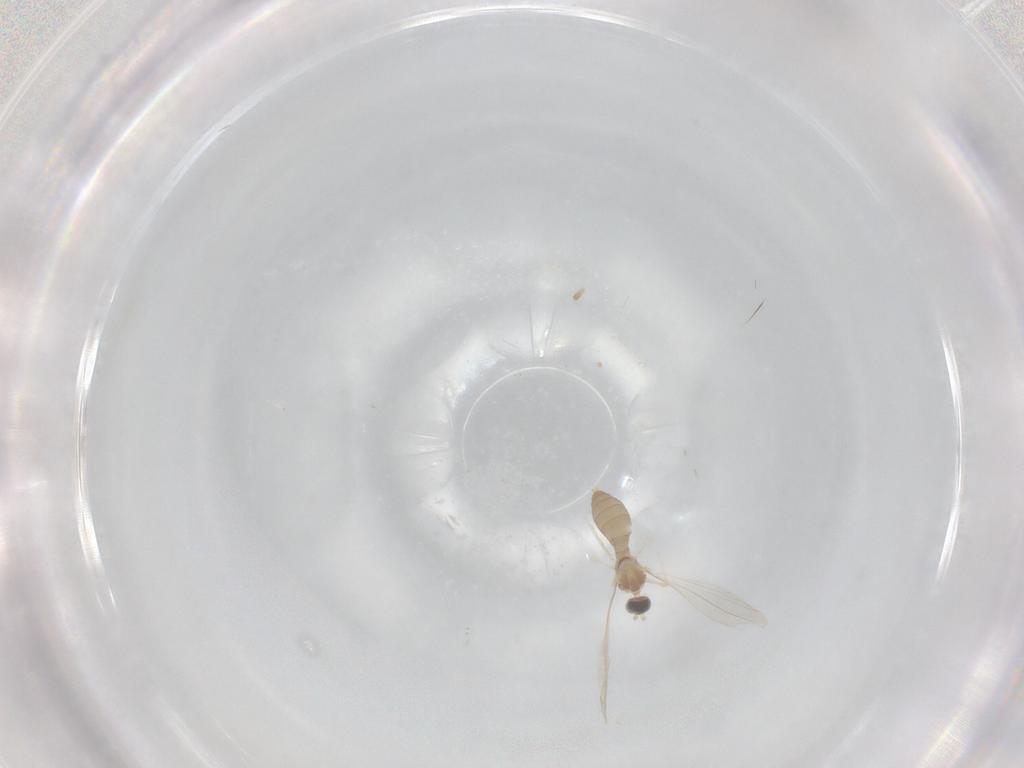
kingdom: Animalia
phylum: Arthropoda
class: Insecta
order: Diptera
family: Cecidomyiidae
